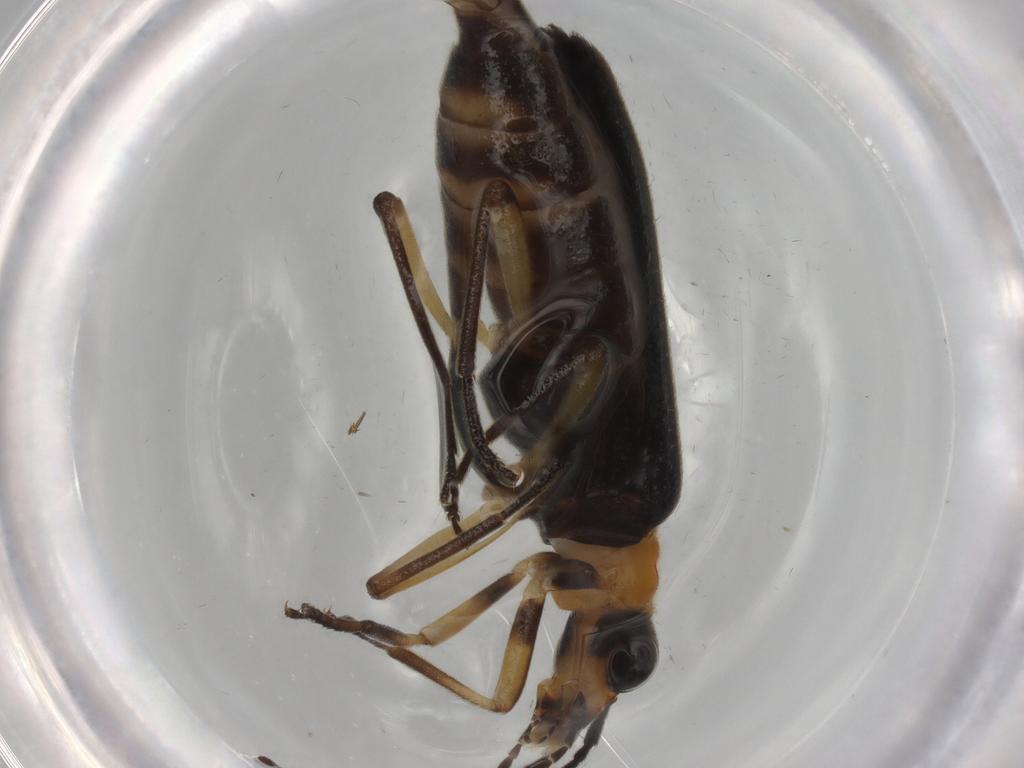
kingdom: Animalia
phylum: Arthropoda
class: Insecta
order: Coleoptera
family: Oedemeridae
